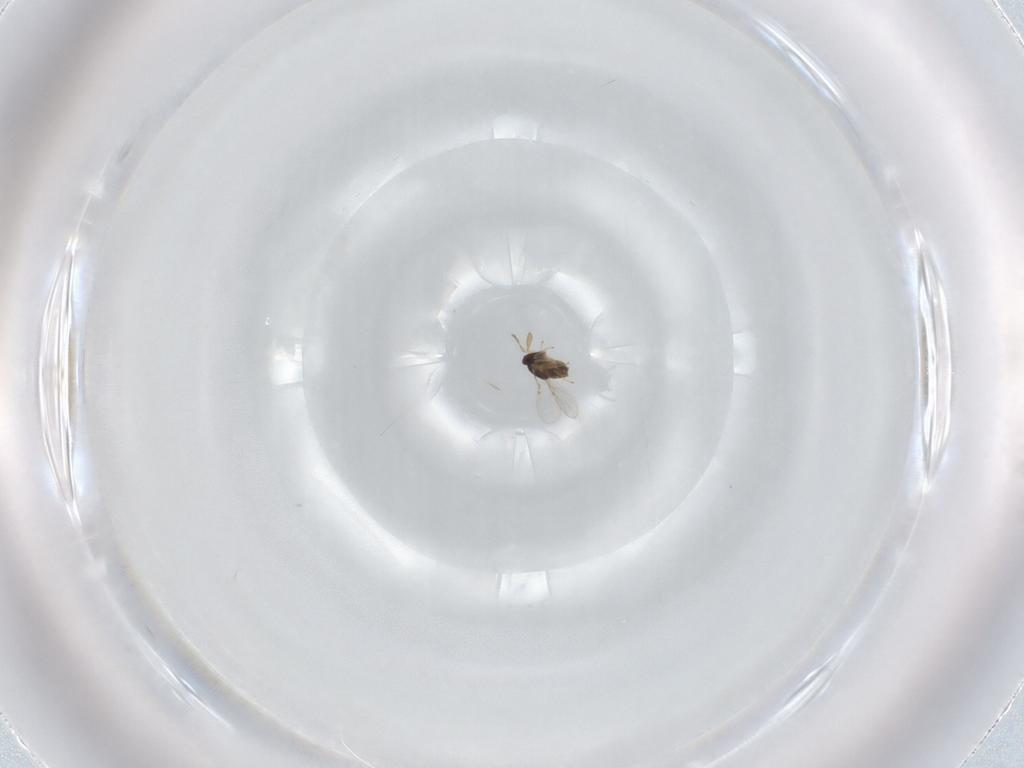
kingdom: Animalia
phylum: Arthropoda
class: Insecta
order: Hymenoptera
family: Encyrtidae
